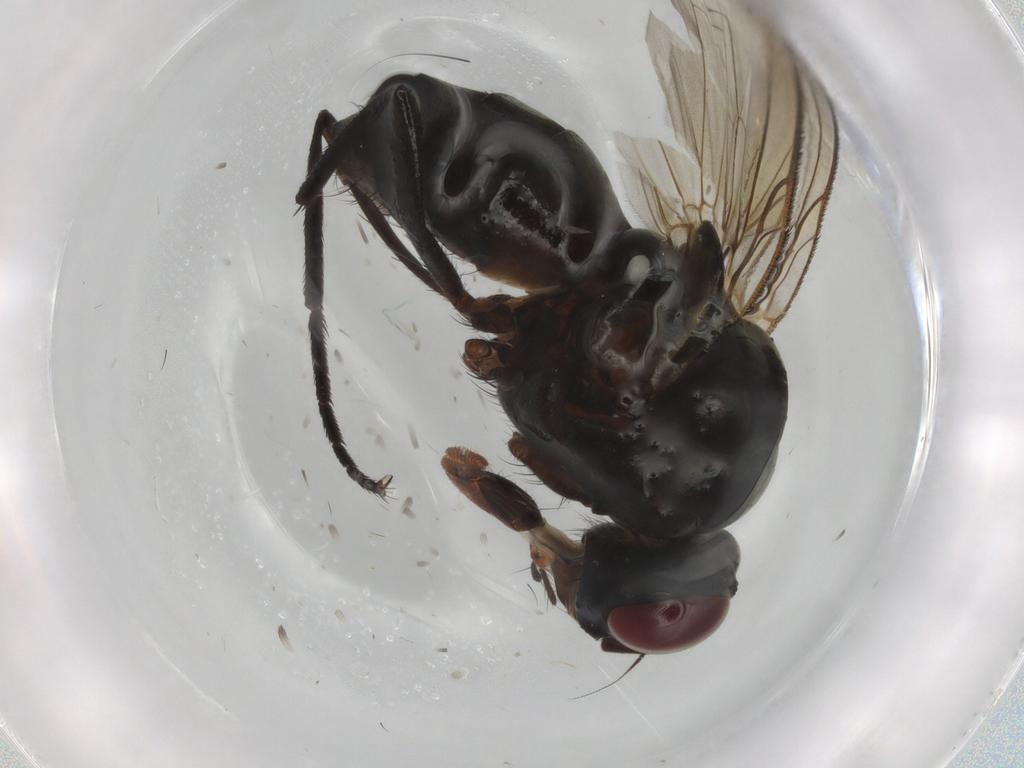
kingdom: Animalia
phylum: Arthropoda
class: Insecta
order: Diptera
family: Anthomyiidae
